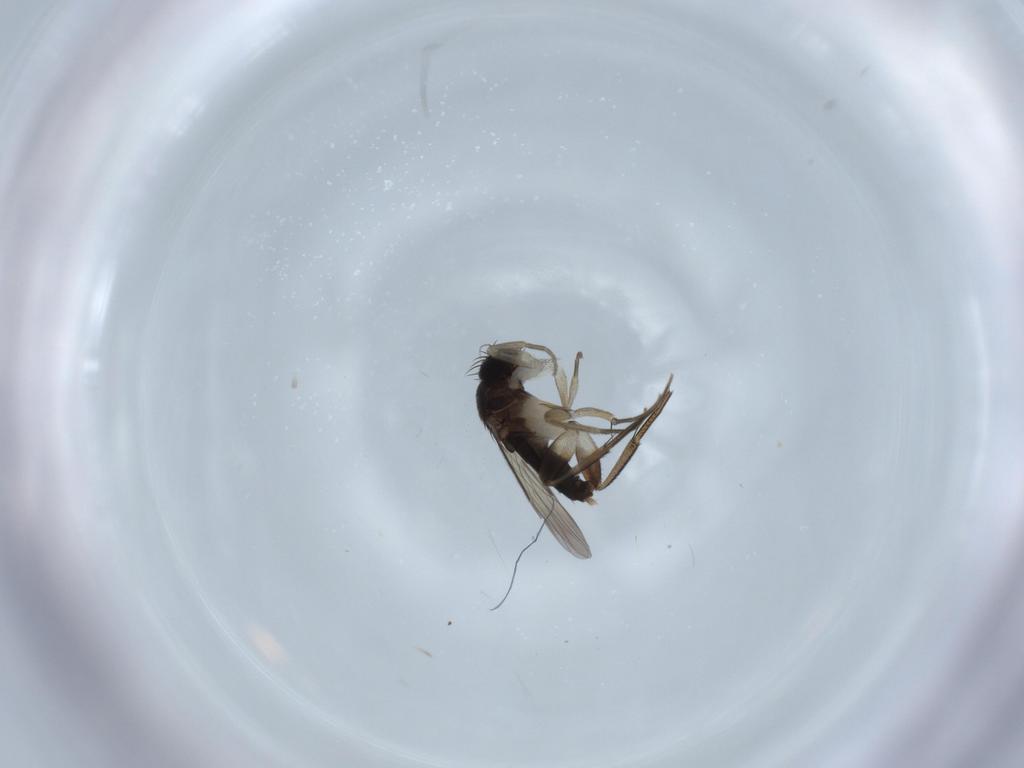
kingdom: Animalia
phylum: Arthropoda
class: Insecta
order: Diptera
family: Phoridae
